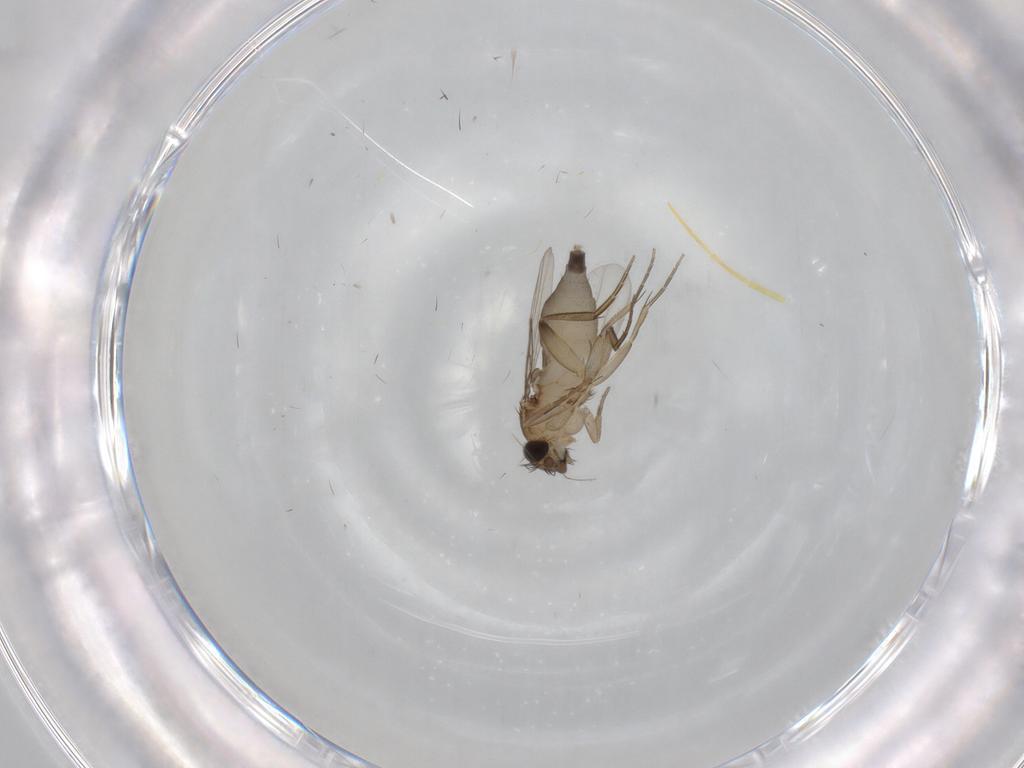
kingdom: Animalia
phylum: Arthropoda
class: Insecta
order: Diptera
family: Phoridae
